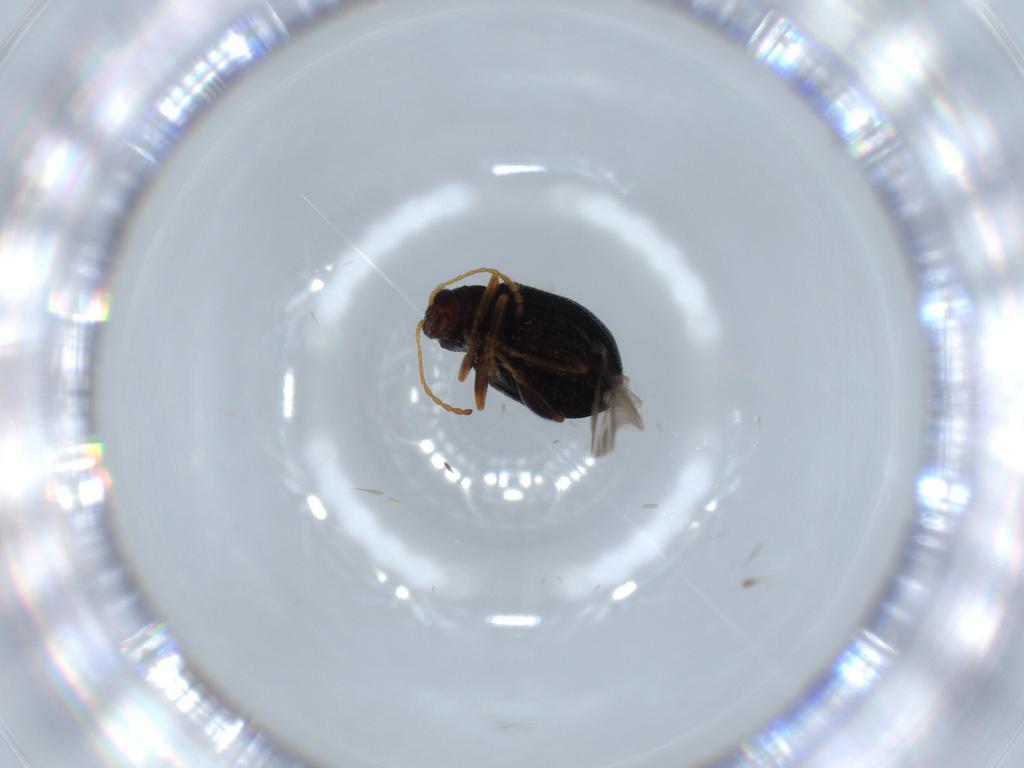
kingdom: Animalia
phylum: Arthropoda
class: Insecta
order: Coleoptera
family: Chrysomelidae
